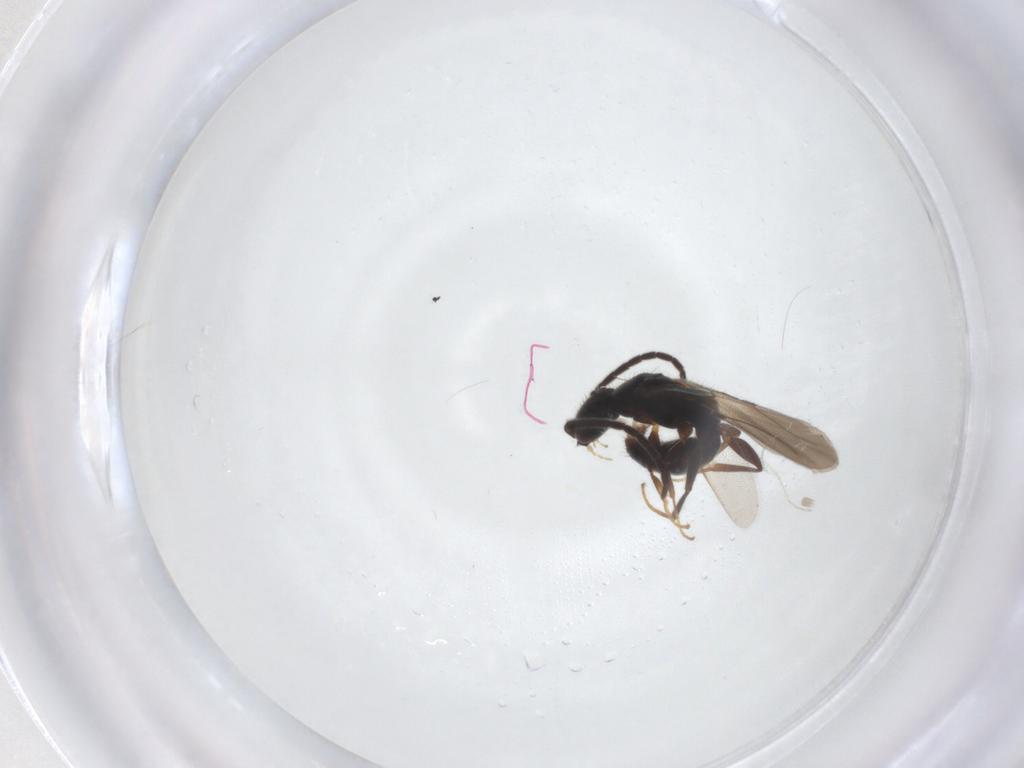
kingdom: Animalia
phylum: Arthropoda
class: Insecta
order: Hymenoptera
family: Bethylidae
